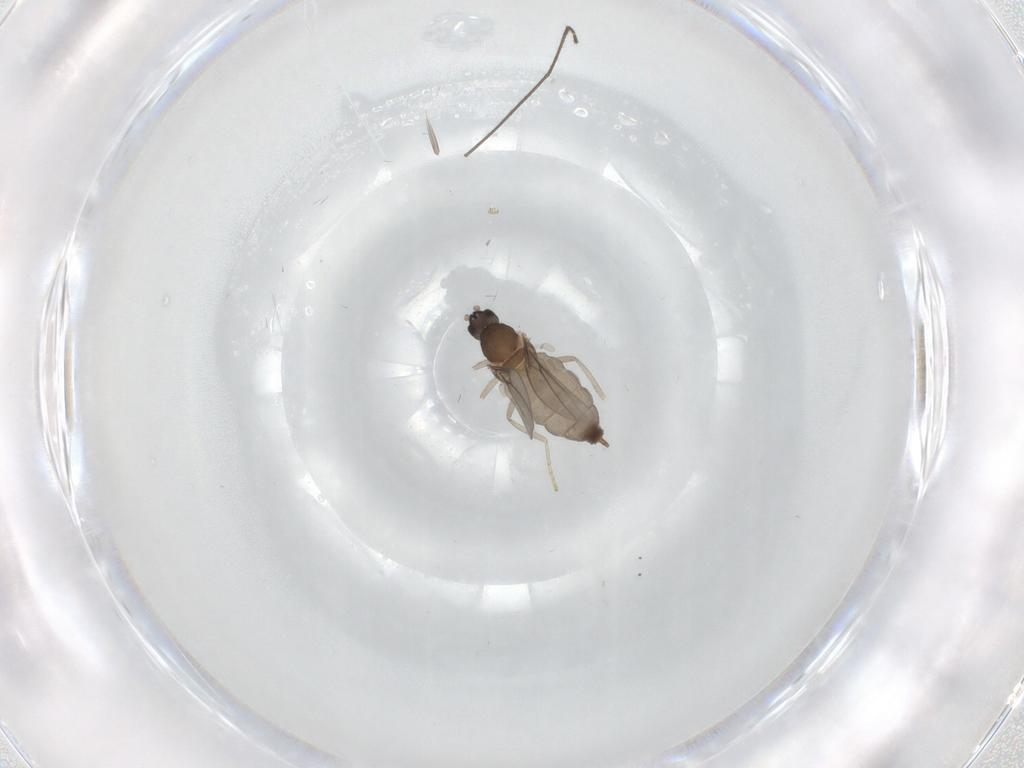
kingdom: Animalia
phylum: Arthropoda
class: Insecta
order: Diptera
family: Cecidomyiidae
